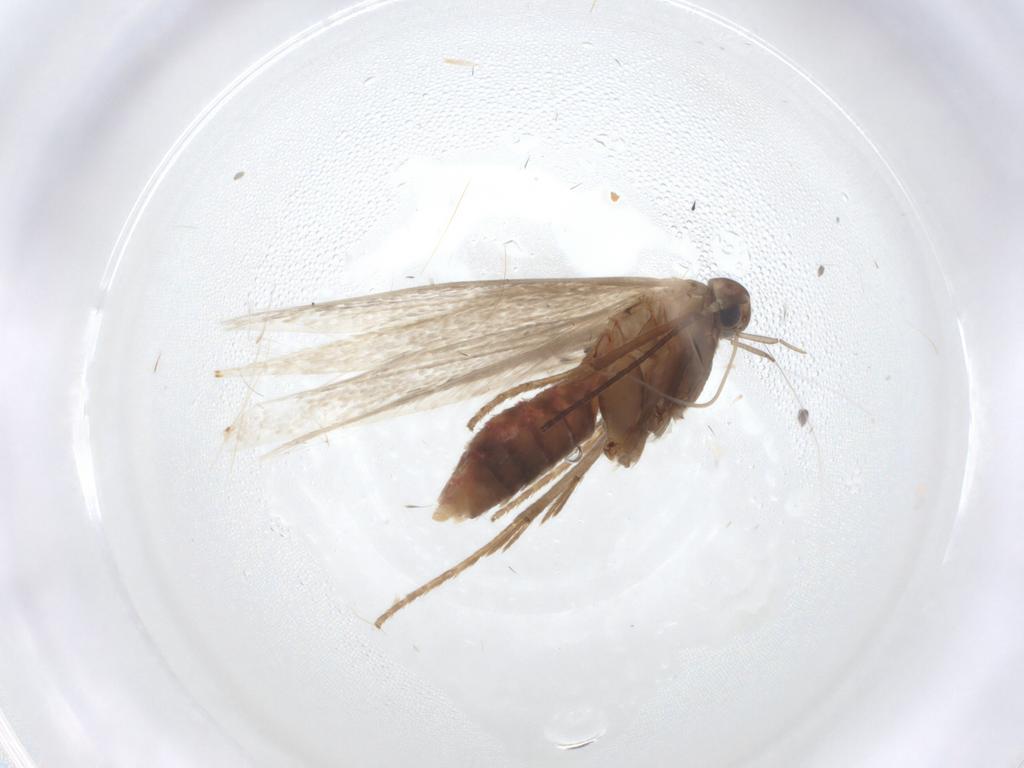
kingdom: Animalia
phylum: Arthropoda
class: Insecta
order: Lepidoptera
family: Coleophoridae
